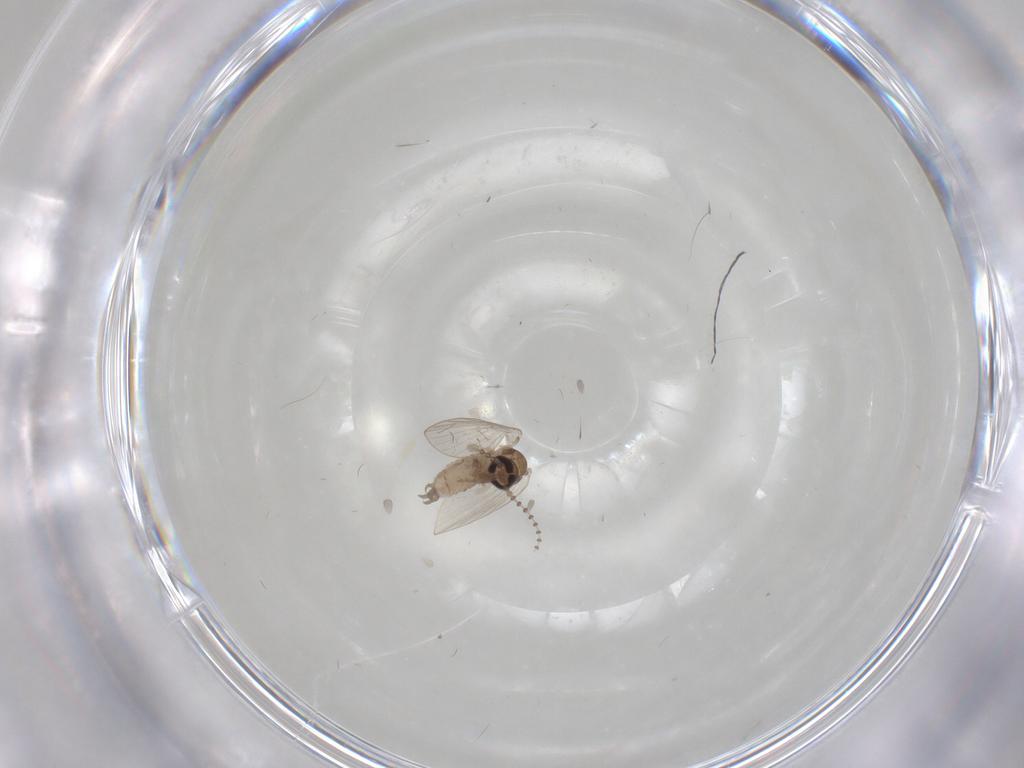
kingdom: Animalia
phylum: Arthropoda
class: Insecta
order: Diptera
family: Psychodidae
